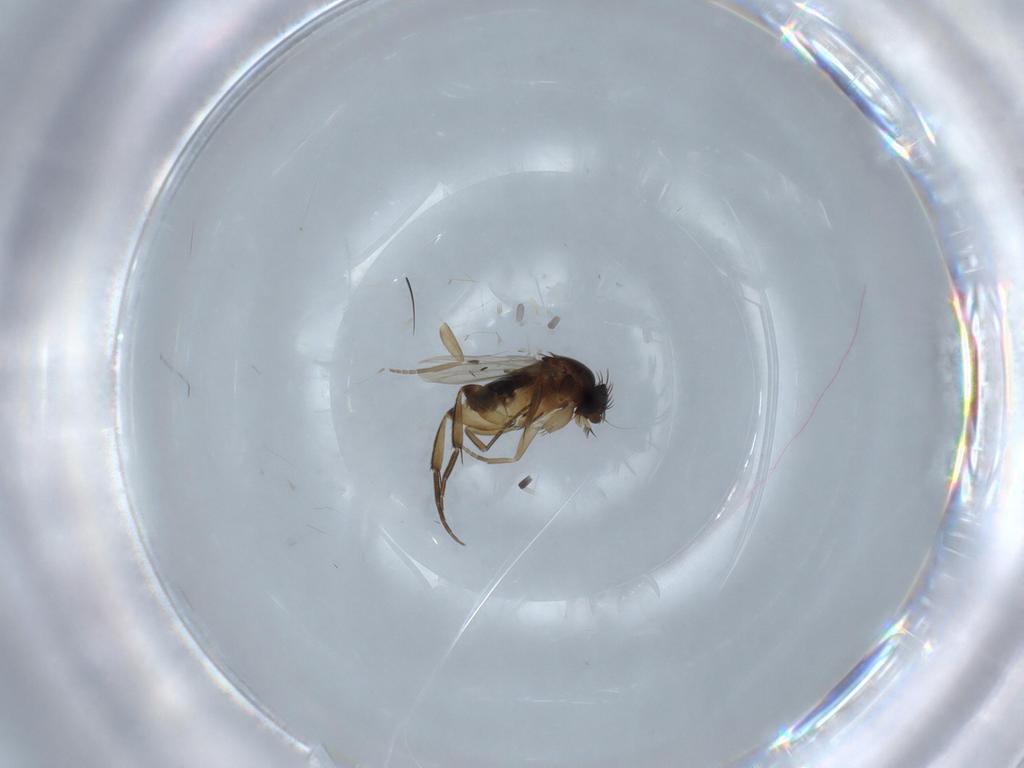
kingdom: Animalia
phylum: Arthropoda
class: Insecta
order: Diptera
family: Phoridae
